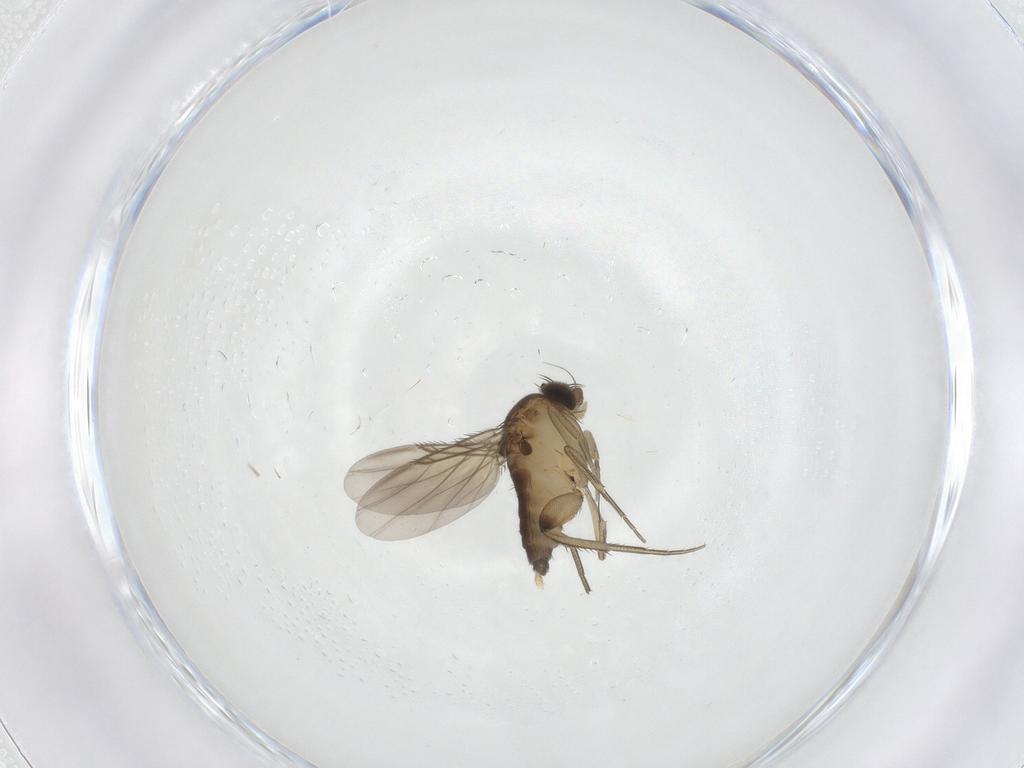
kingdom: Animalia
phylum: Arthropoda
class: Insecta
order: Diptera
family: Phoridae
